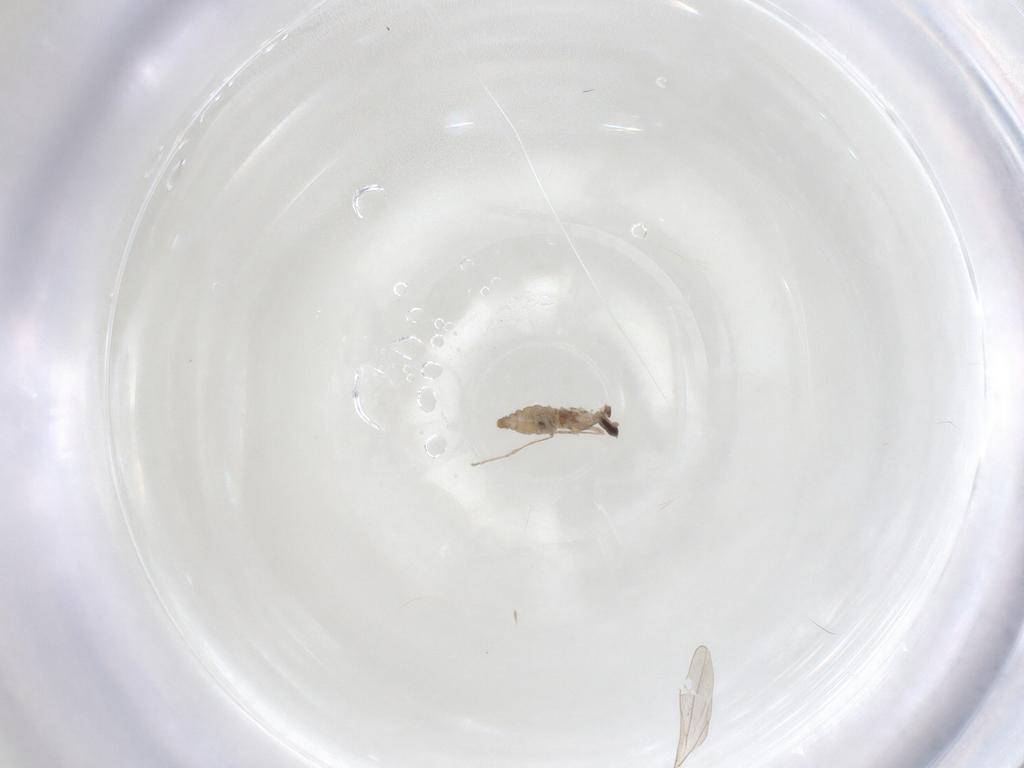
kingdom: Animalia
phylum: Arthropoda
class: Insecta
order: Diptera
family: Cecidomyiidae
